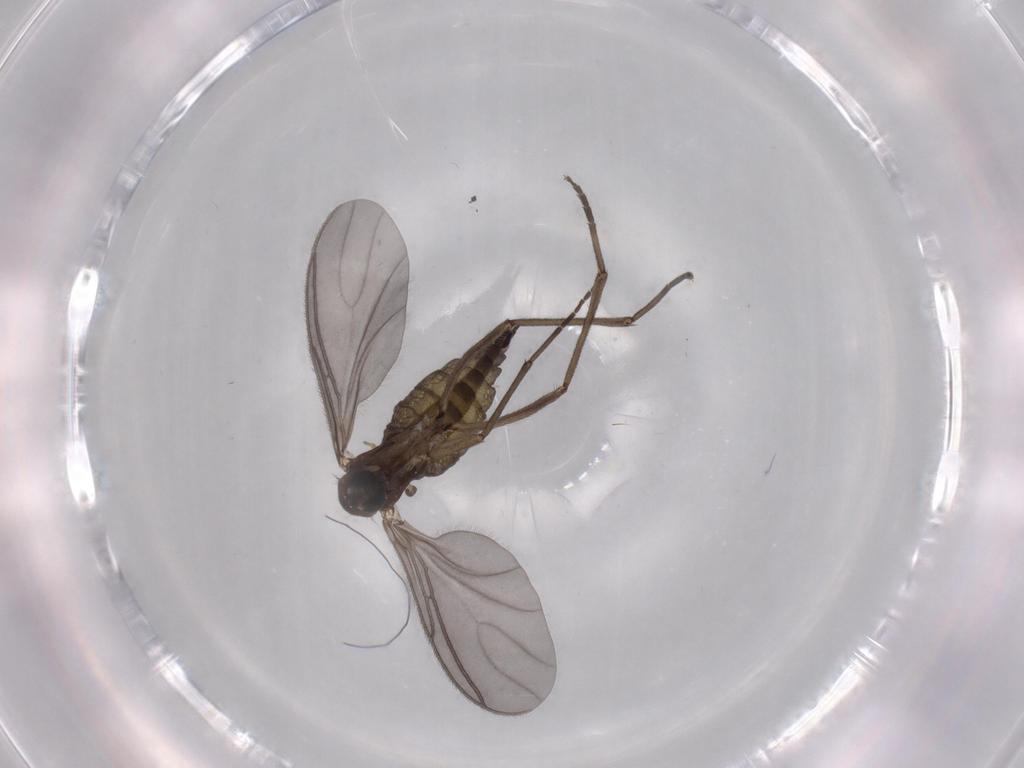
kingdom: Animalia
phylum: Arthropoda
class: Insecta
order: Diptera
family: Sciaridae
